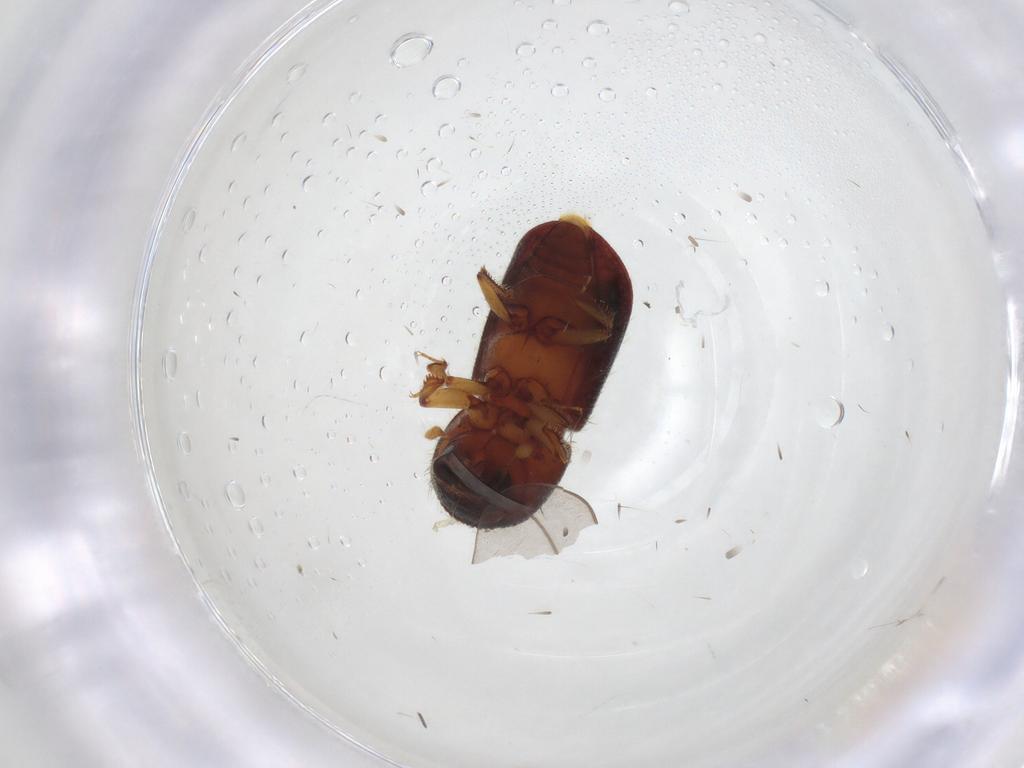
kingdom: Animalia
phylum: Arthropoda
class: Insecta
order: Coleoptera
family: Curculionidae
